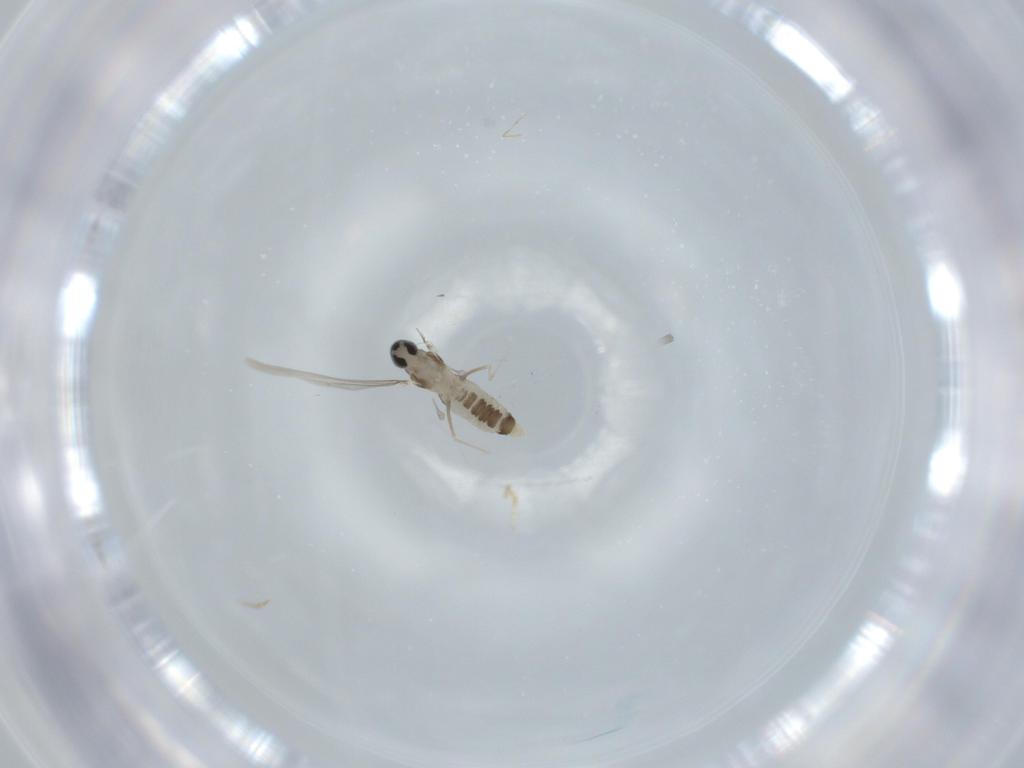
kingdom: Animalia
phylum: Arthropoda
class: Insecta
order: Diptera
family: Cecidomyiidae
